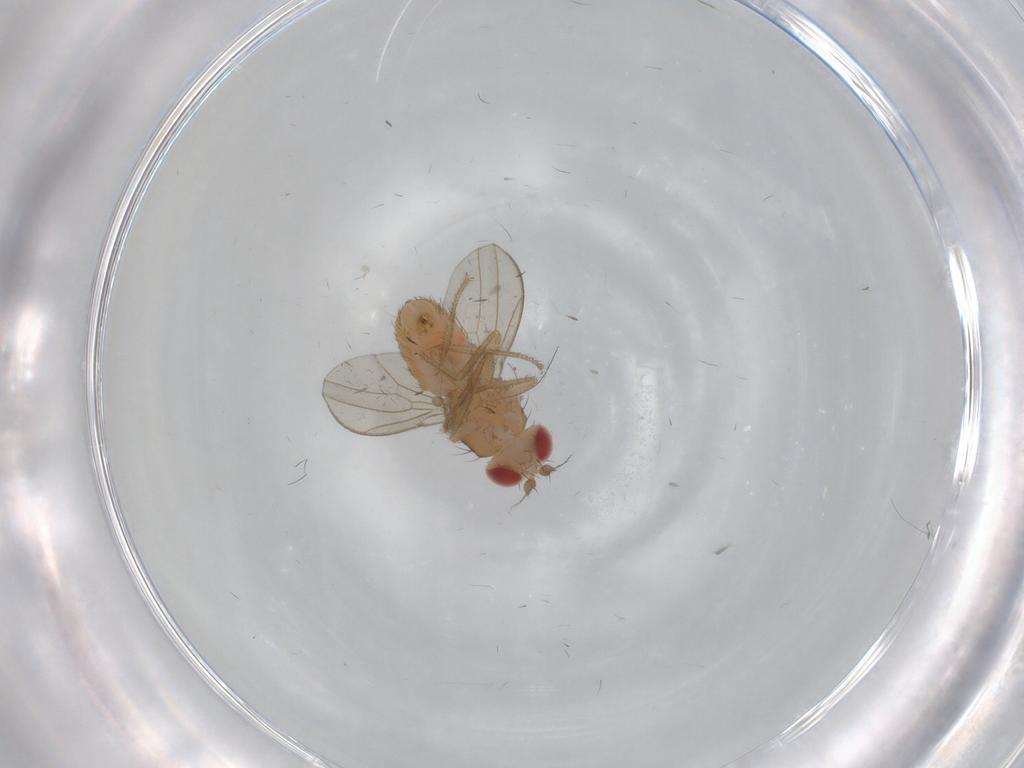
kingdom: Animalia
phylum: Arthropoda
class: Insecta
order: Diptera
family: Drosophilidae
